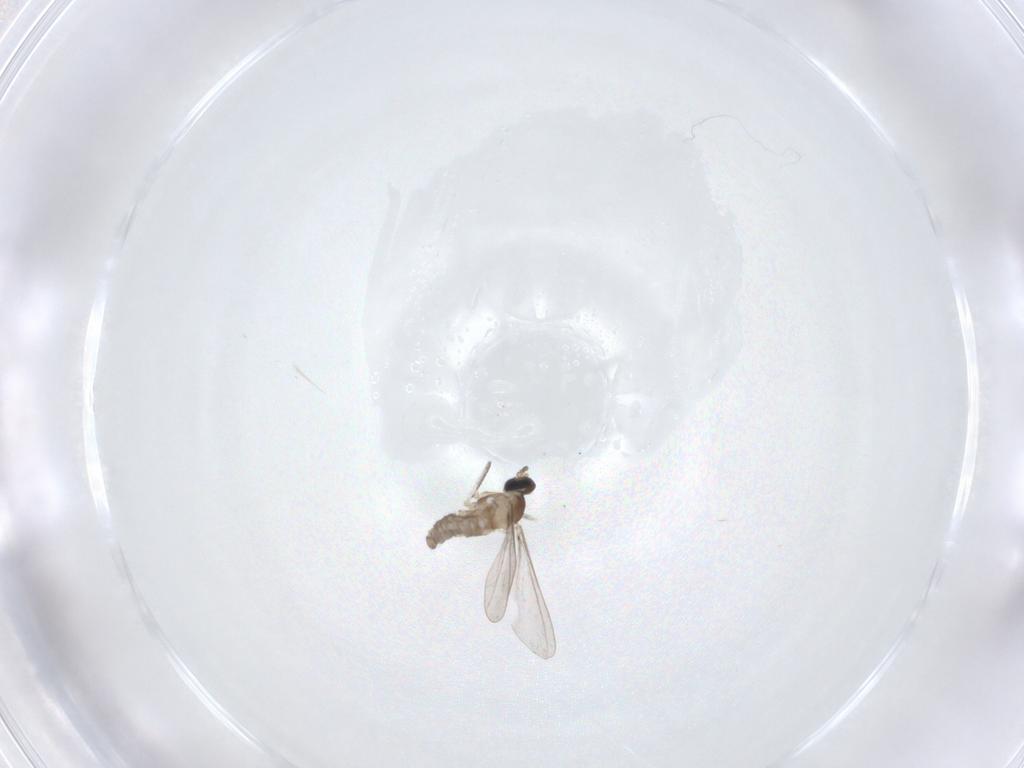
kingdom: Animalia
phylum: Arthropoda
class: Insecta
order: Diptera
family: Cecidomyiidae
